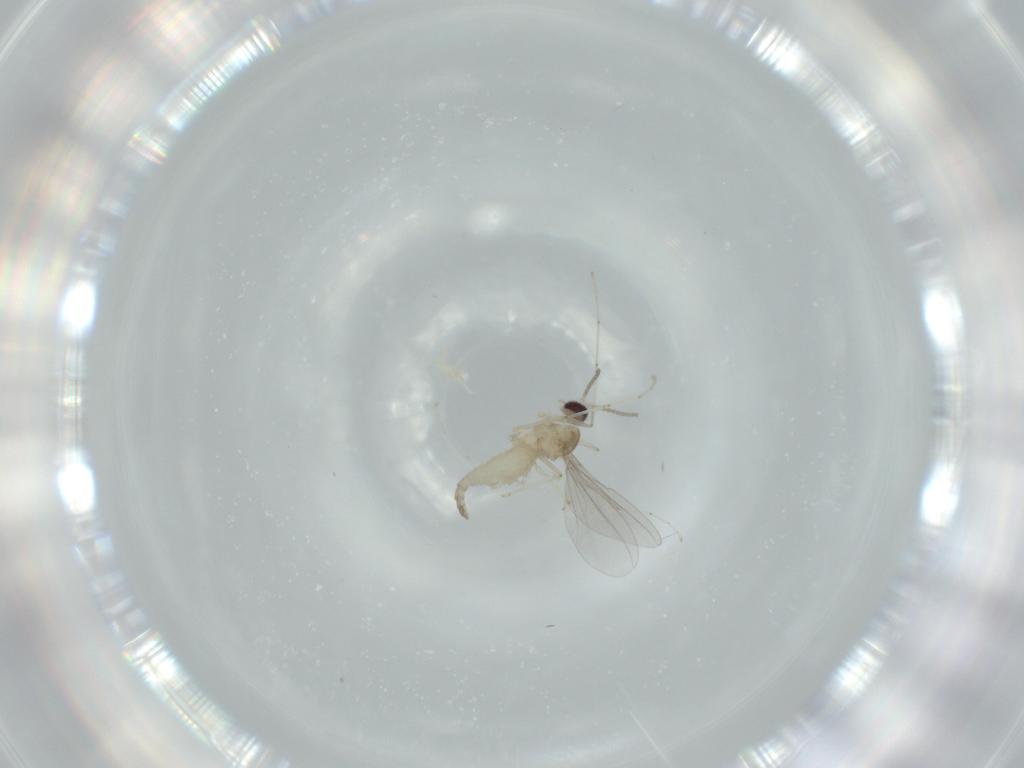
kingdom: Animalia
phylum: Arthropoda
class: Insecta
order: Diptera
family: Cecidomyiidae
